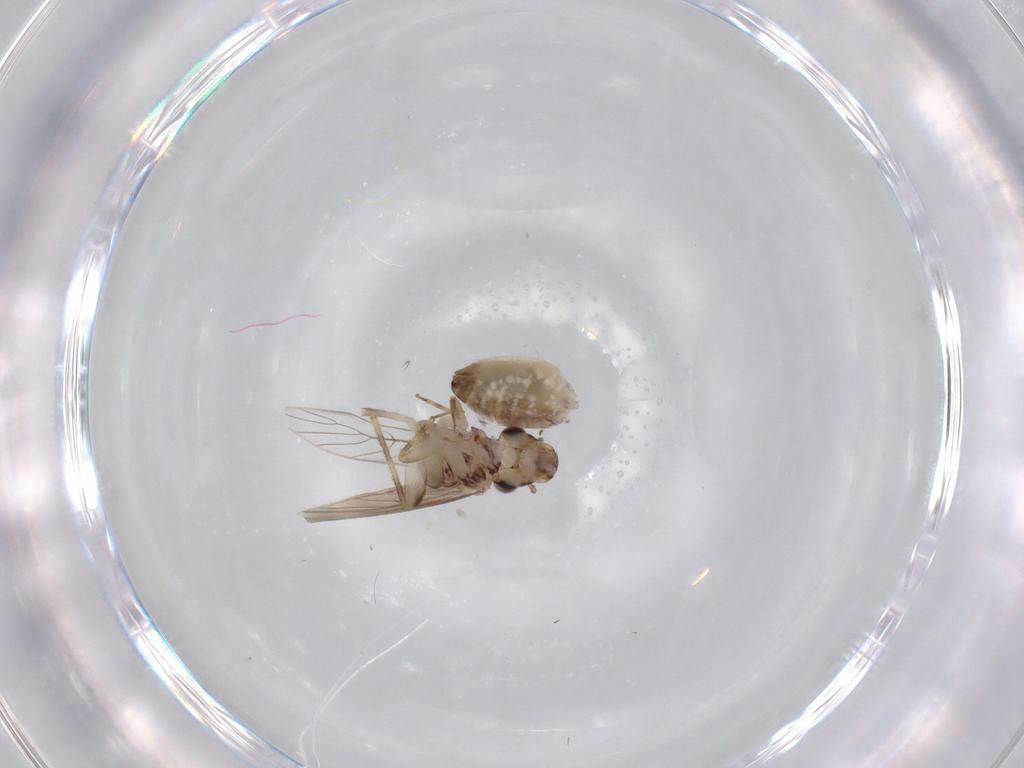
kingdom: Animalia
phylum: Arthropoda
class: Insecta
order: Psocodea
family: Lepidopsocidae
